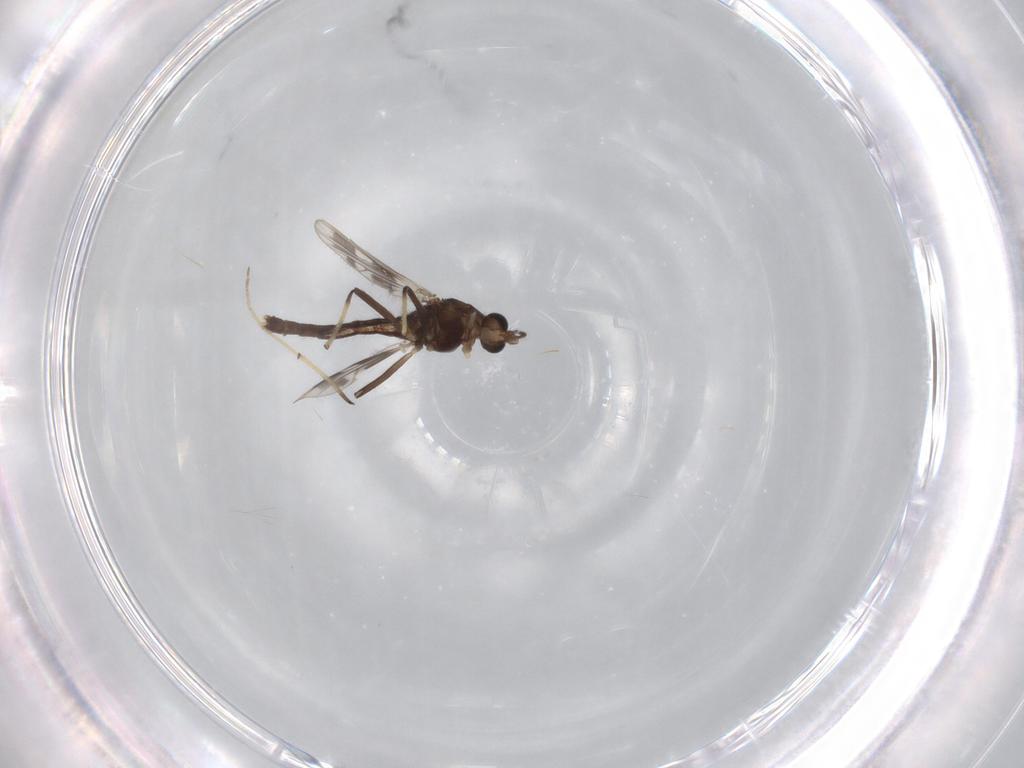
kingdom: Animalia
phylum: Arthropoda
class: Insecta
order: Diptera
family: Chironomidae
